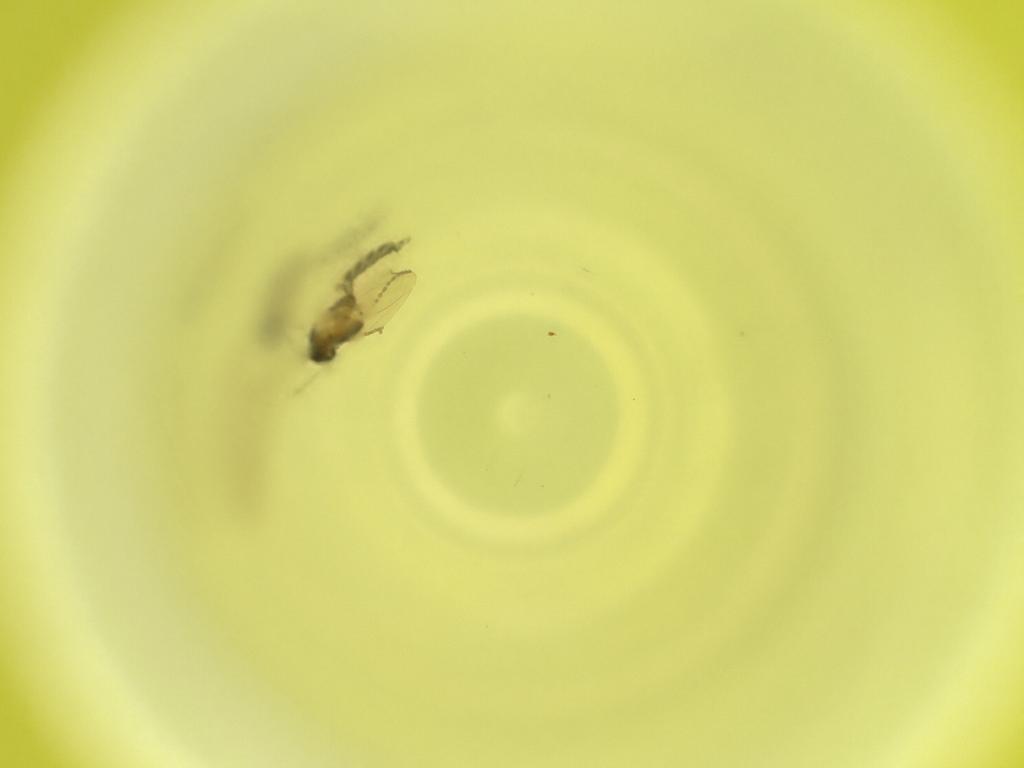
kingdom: Animalia
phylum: Arthropoda
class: Insecta
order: Diptera
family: Cecidomyiidae
